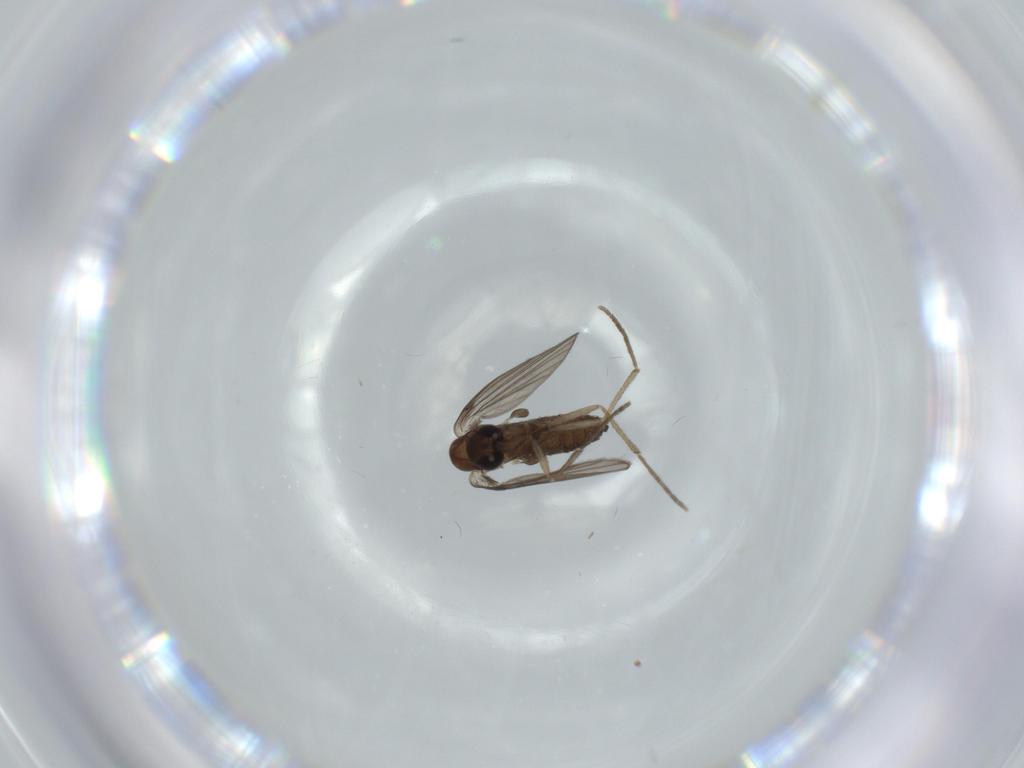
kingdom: Animalia
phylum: Arthropoda
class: Insecta
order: Diptera
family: Psychodidae
